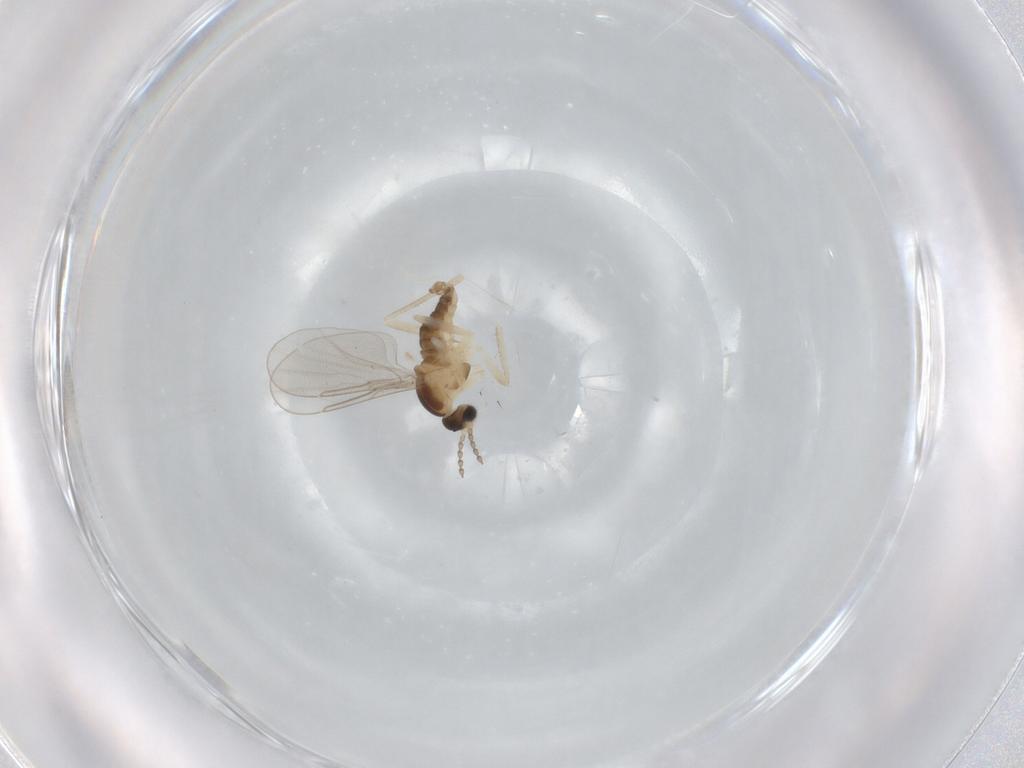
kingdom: Animalia
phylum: Arthropoda
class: Insecta
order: Diptera
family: Cecidomyiidae
